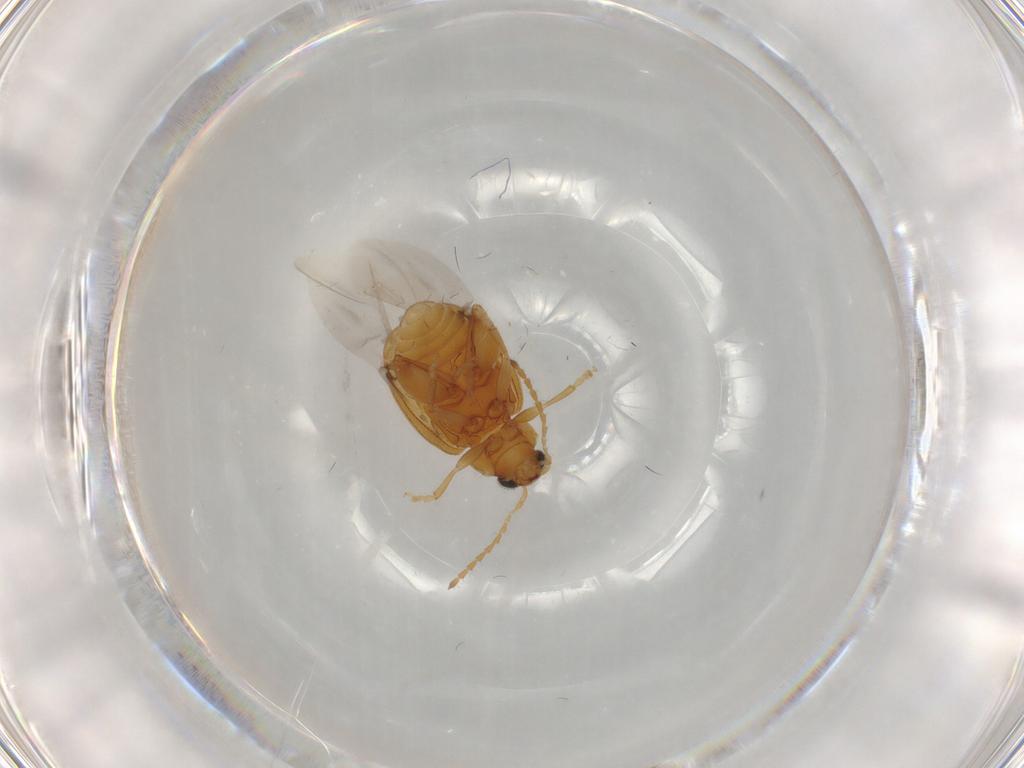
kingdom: Animalia
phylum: Arthropoda
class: Insecta
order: Coleoptera
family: Chrysomelidae
